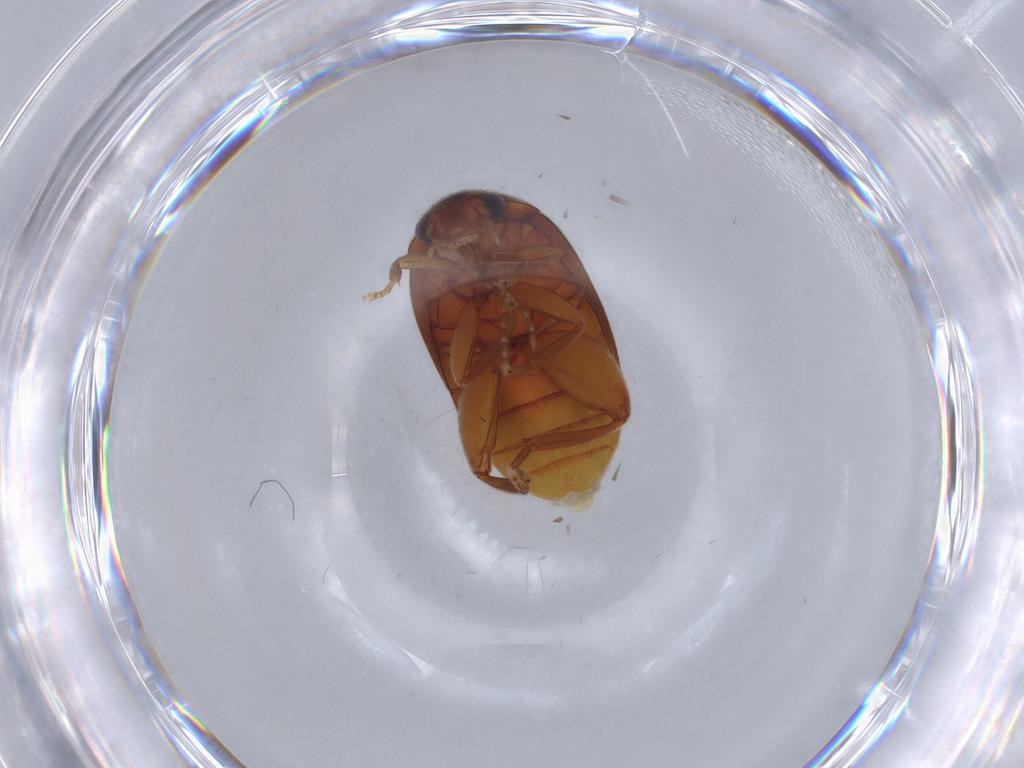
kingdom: Animalia
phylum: Arthropoda
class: Insecta
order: Coleoptera
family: Scirtidae
